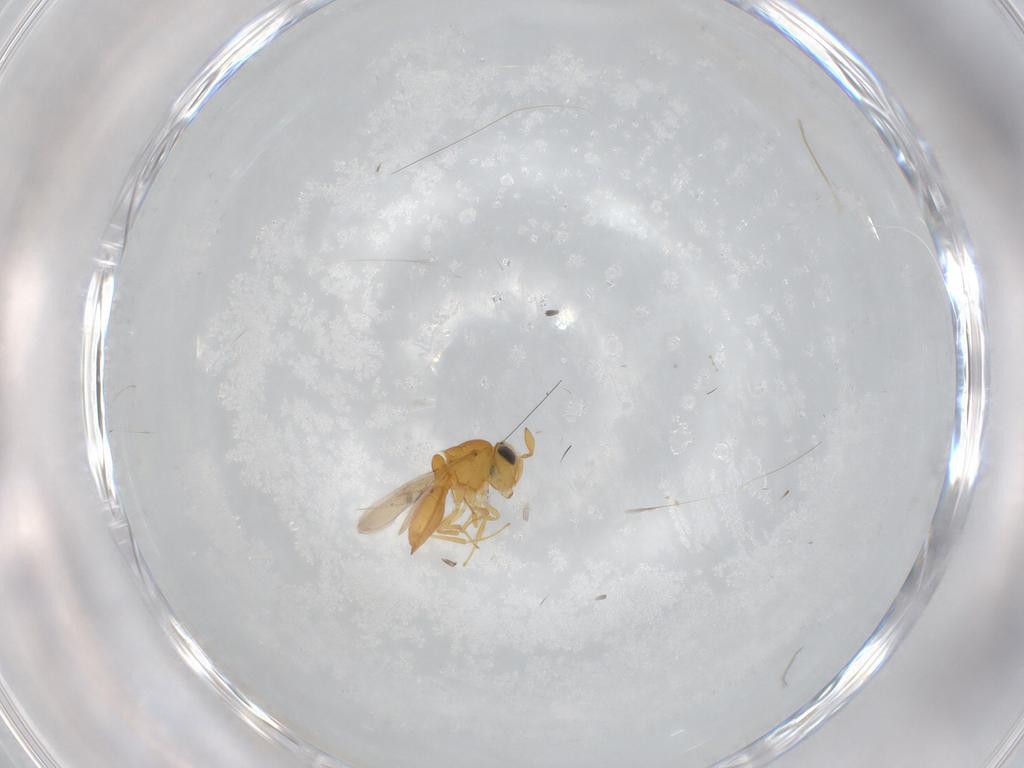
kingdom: Animalia
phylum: Arthropoda
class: Insecta
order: Hymenoptera
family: Scelionidae
